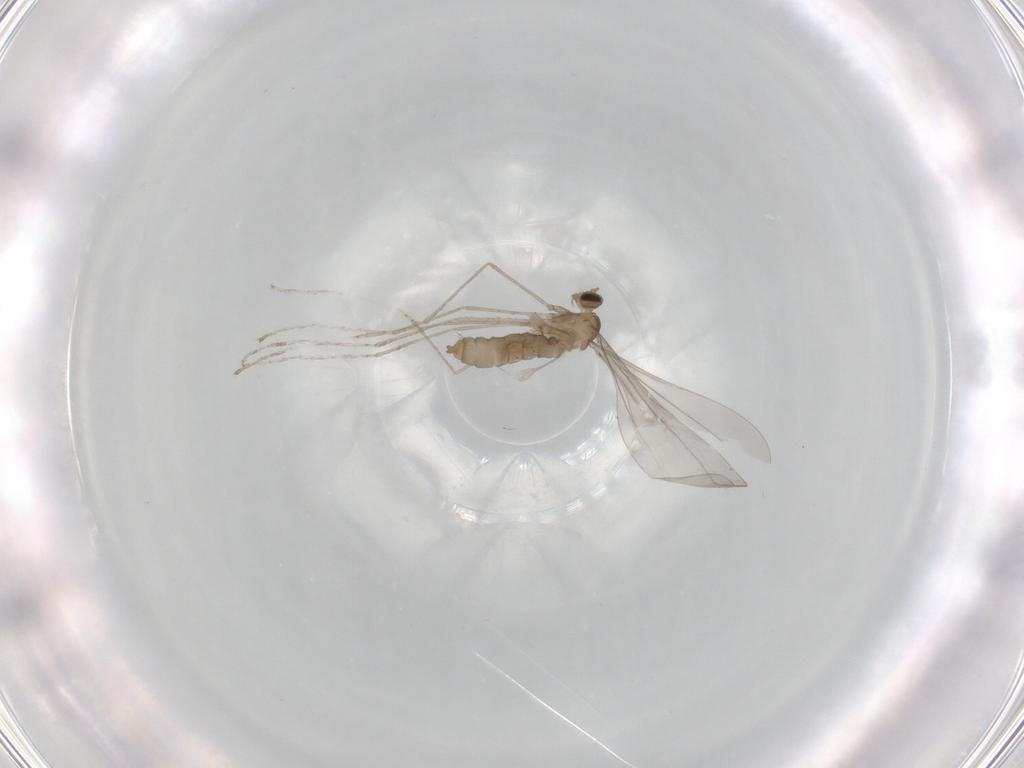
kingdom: Animalia
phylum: Arthropoda
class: Insecta
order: Diptera
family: Cecidomyiidae
